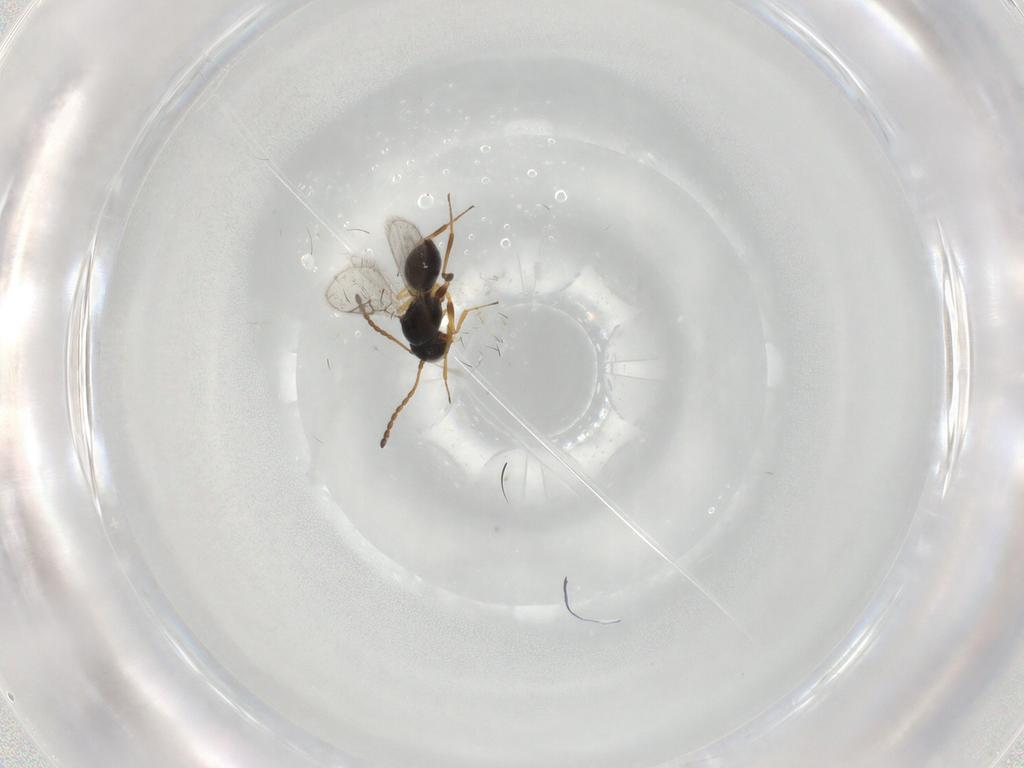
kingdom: Animalia
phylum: Arthropoda
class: Insecta
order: Hymenoptera
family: Figitidae
